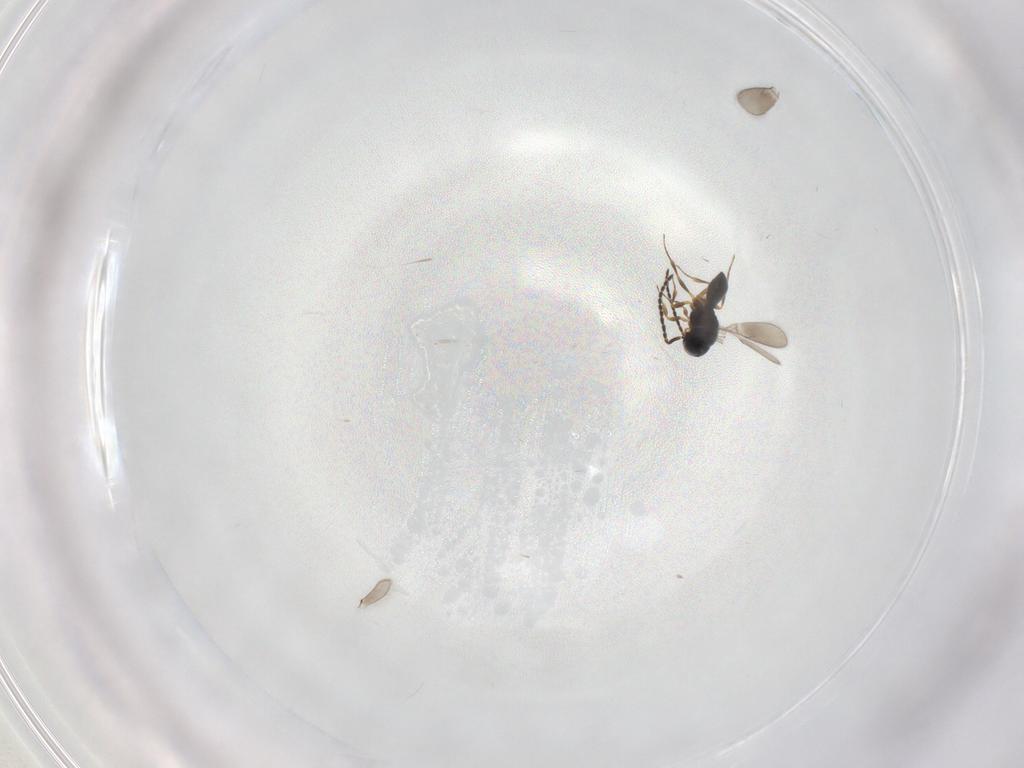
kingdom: Animalia
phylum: Arthropoda
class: Insecta
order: Hymenoptera
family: Scelionidae
